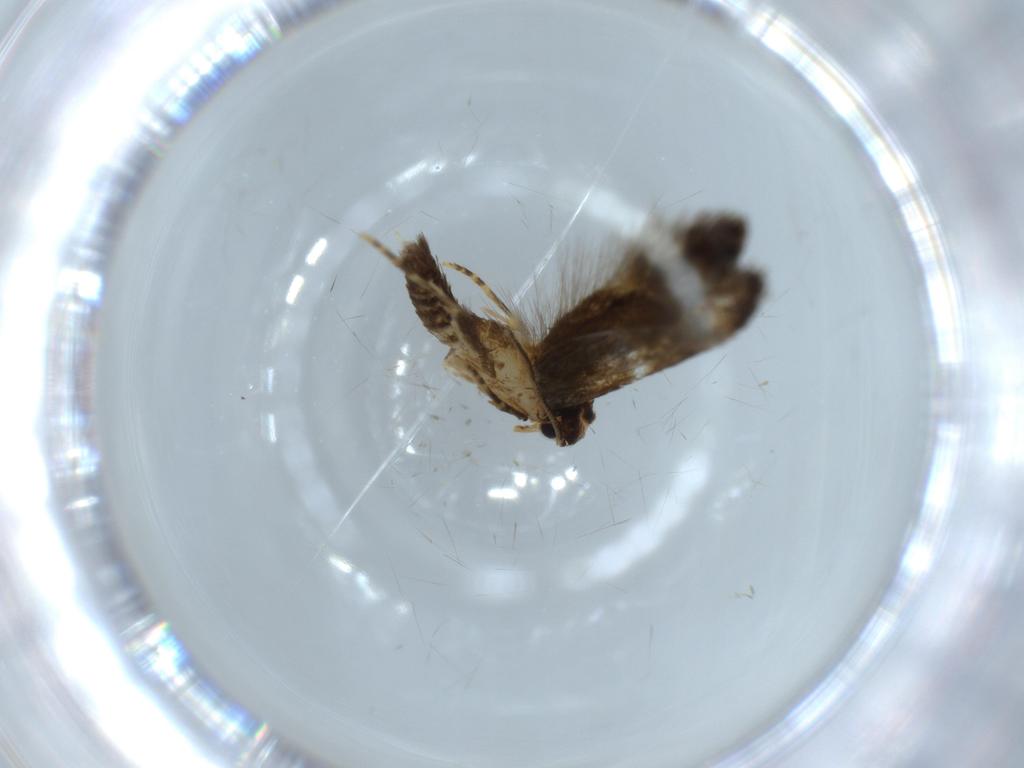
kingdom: Animalia
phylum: Arthropoda
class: Insecta
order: Lepidoptera
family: Tineidae
